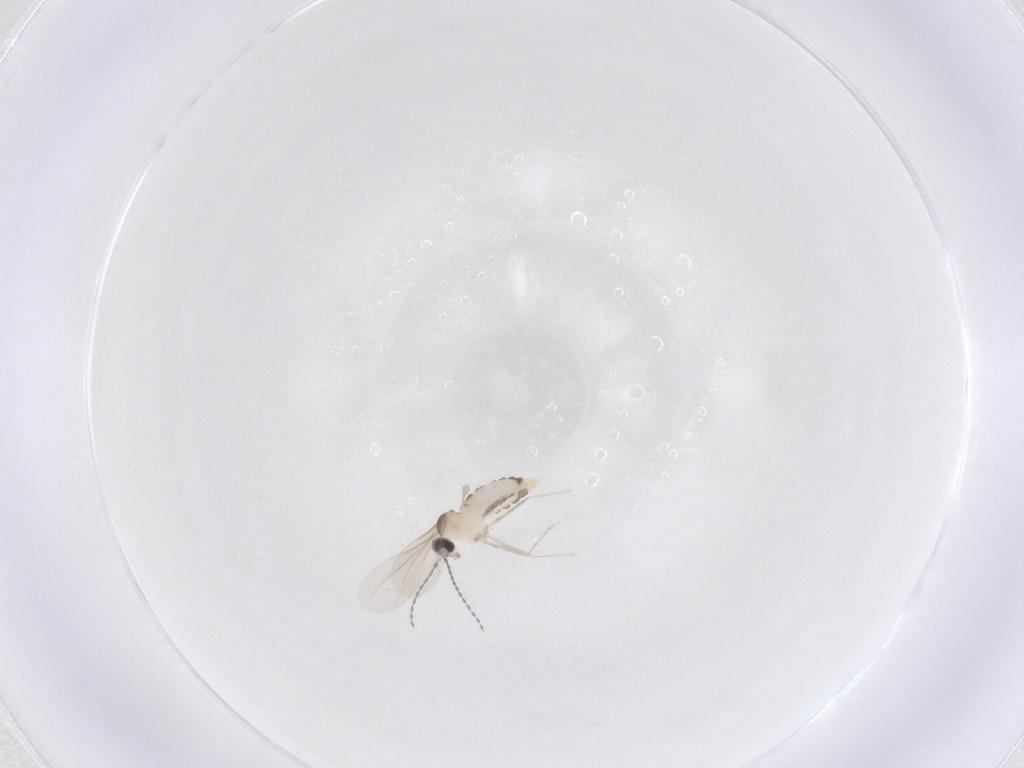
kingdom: Animalia
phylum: Arthropoda
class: Insecta
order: Diptera
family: Cecidomyiidae
